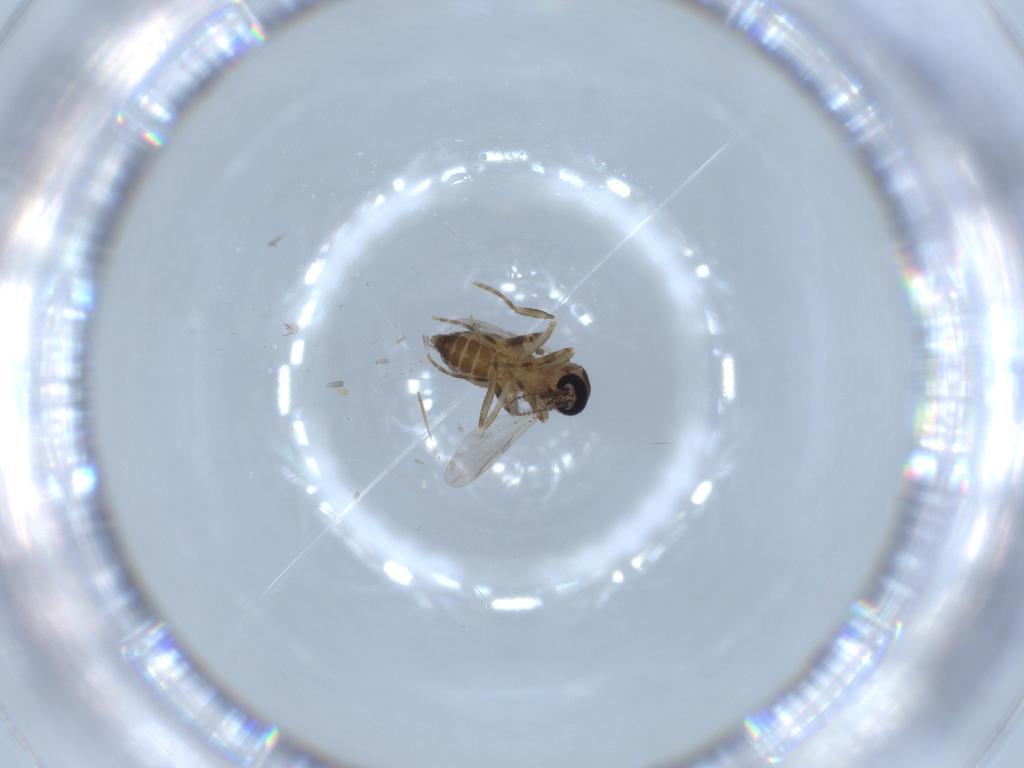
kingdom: Animalia
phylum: Arthropoda
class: Insecta
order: Diptera
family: Ceratopogonidae
